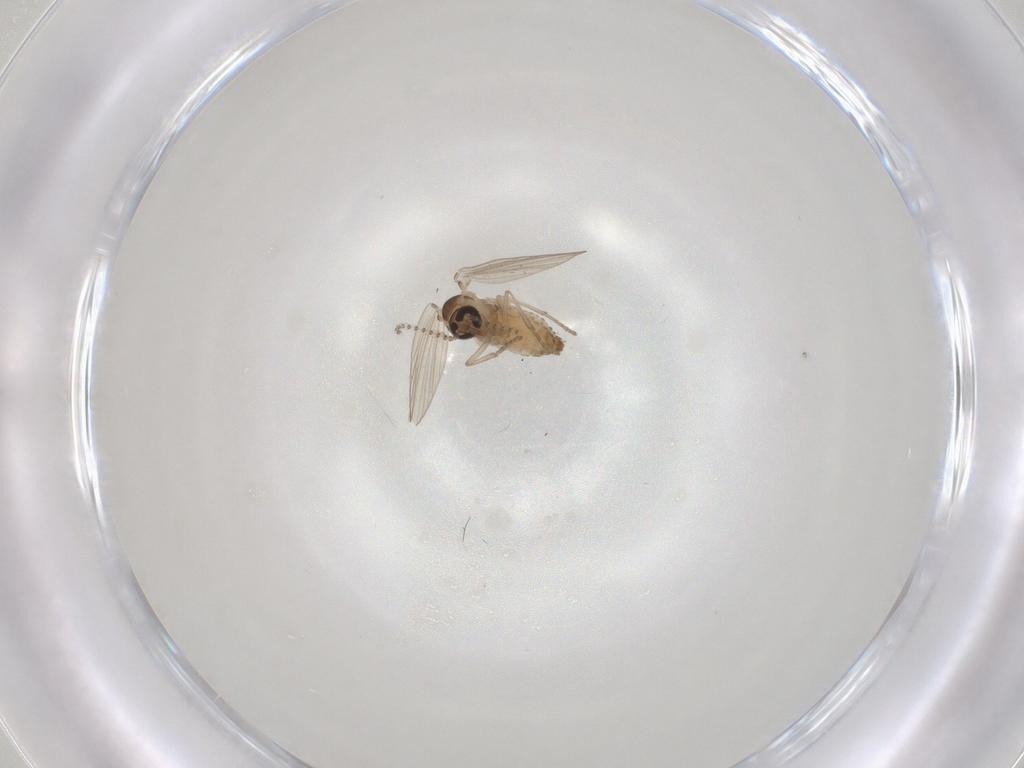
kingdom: Animalia
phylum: Arthropoda
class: Insecta
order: Diptera
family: Psychodidae
